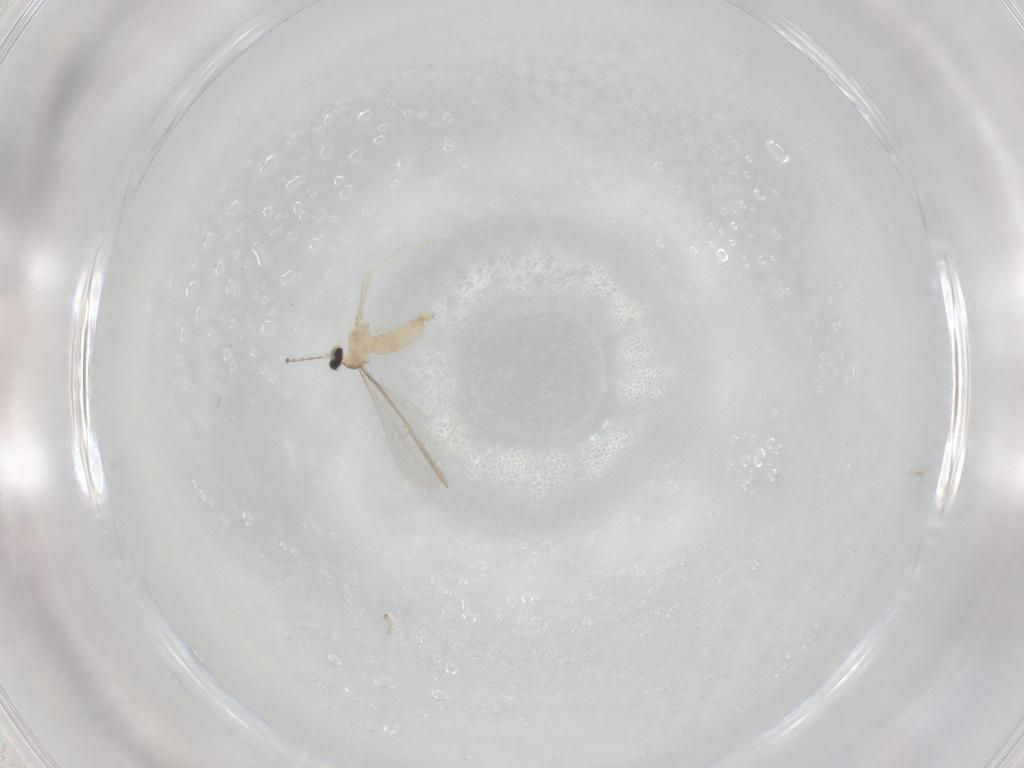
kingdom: Animalia
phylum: Arthropoda
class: Insecta
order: Diptera
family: Cecidomyiidae
